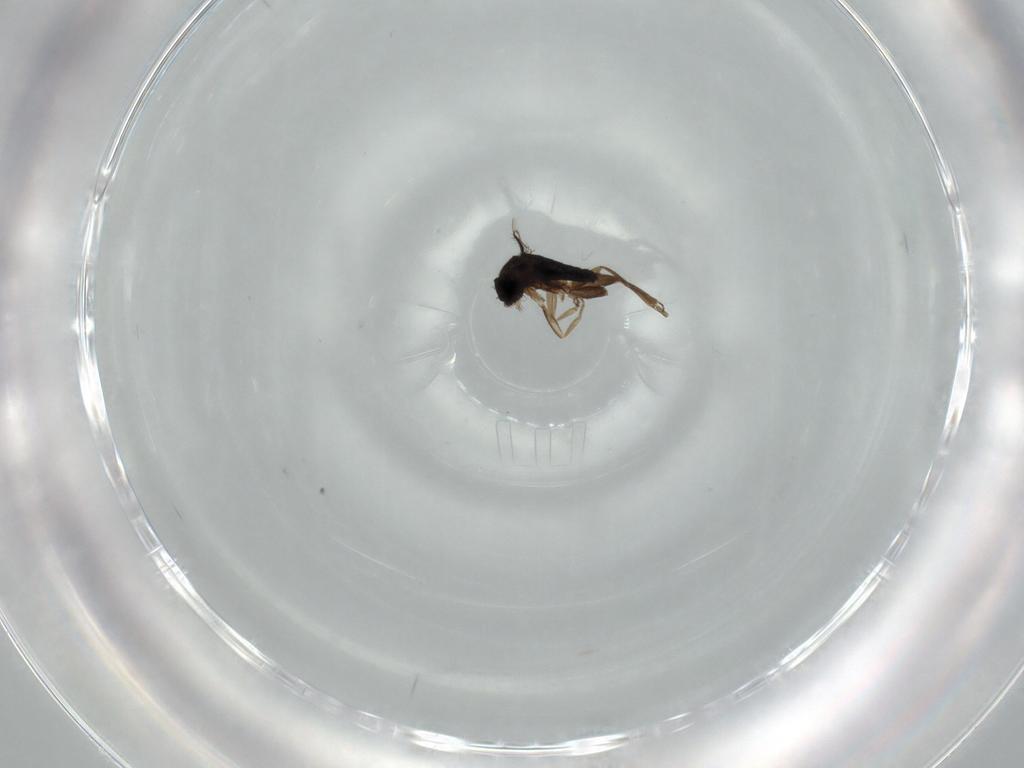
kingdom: Animalia
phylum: Arthropoda
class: Insecta
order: Diptera
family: Phoridae
